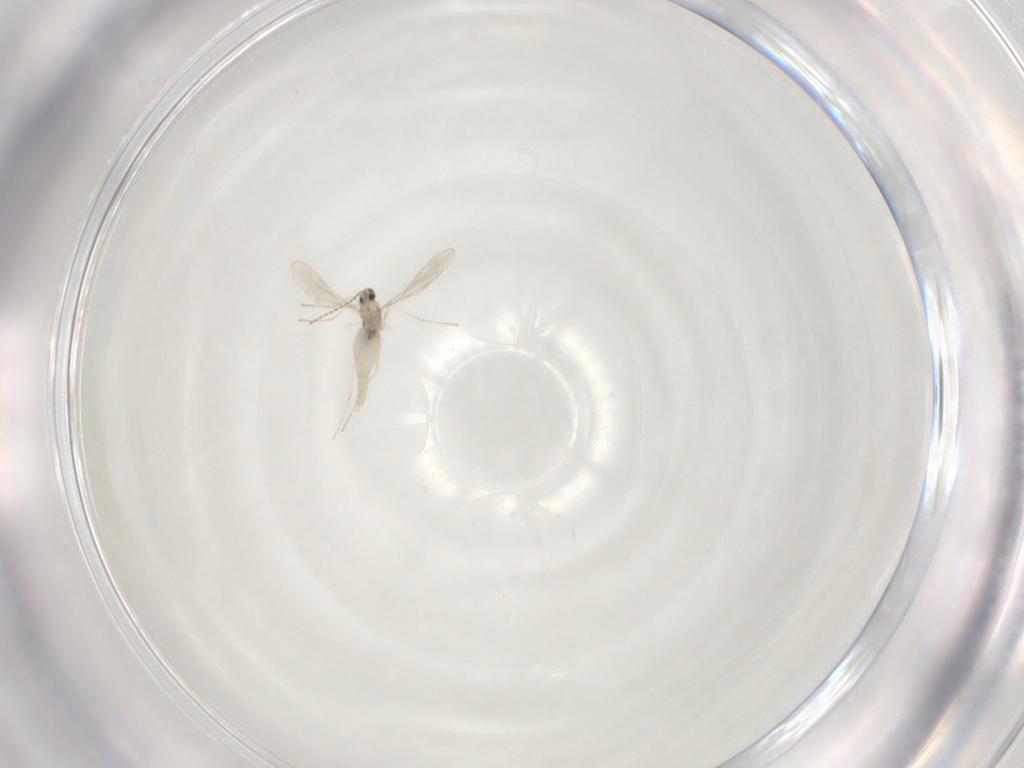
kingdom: Animalia
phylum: Arthropoda
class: Insecta
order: Diptera
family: Cecidomyiidae
